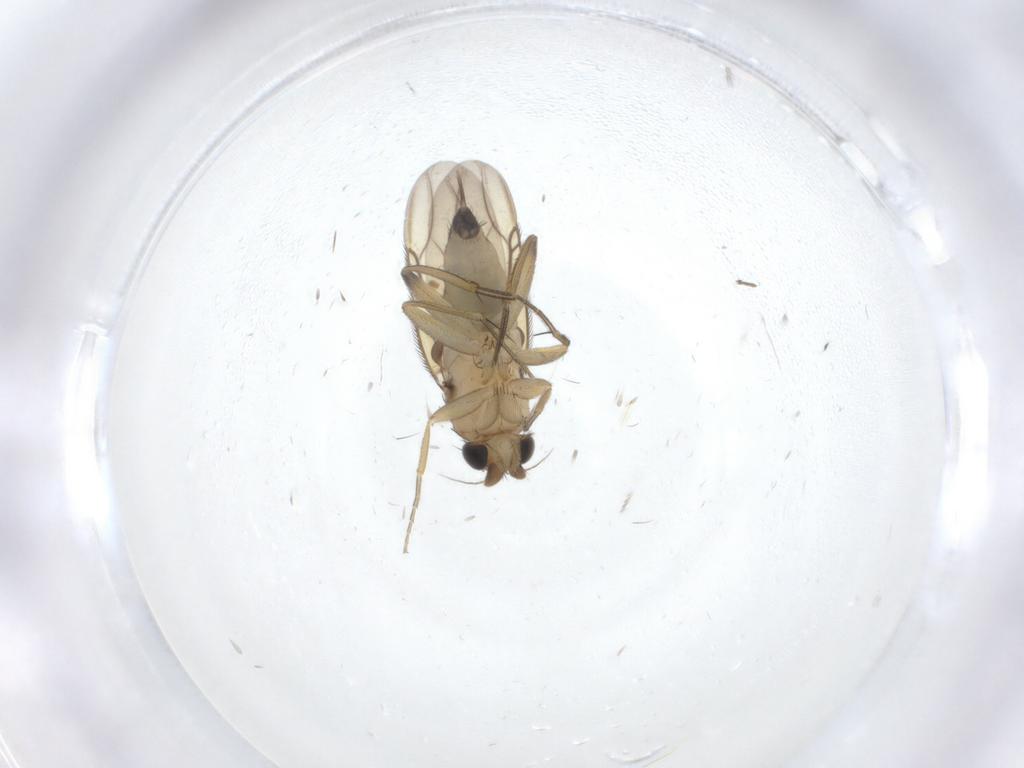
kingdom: Animalia
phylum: Arthropoda
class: Insecta
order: Diptera
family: Phoridae
